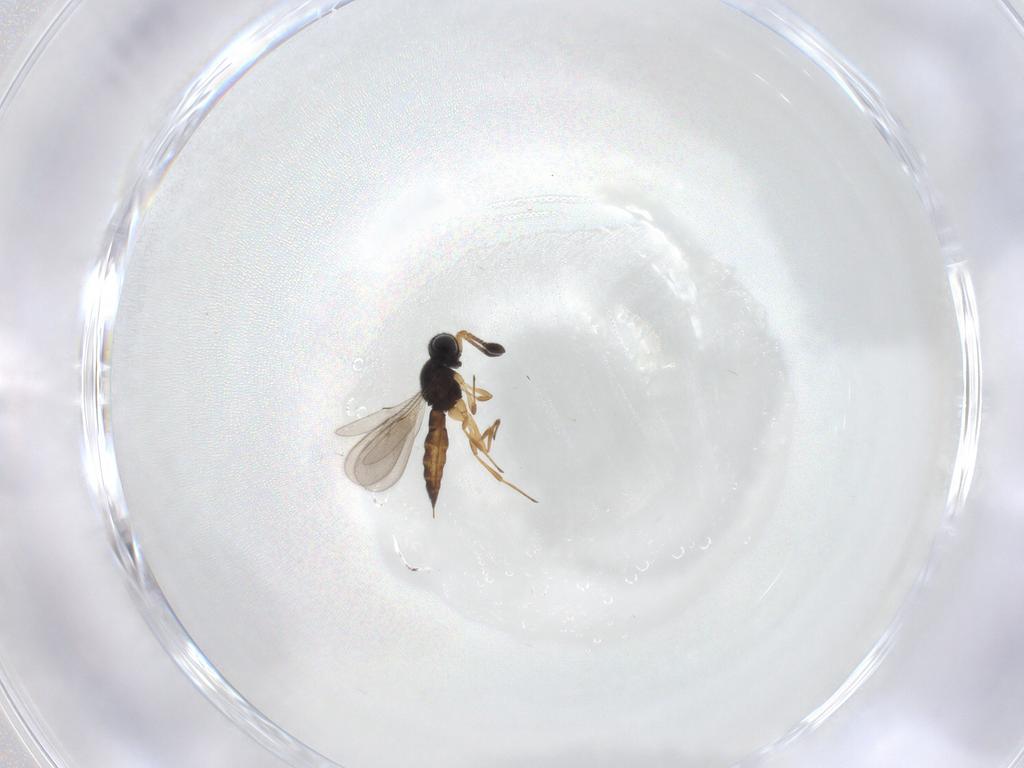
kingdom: Animalia
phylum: Arthropoda
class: Insecta
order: Hymenoptera
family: Scelionidae
